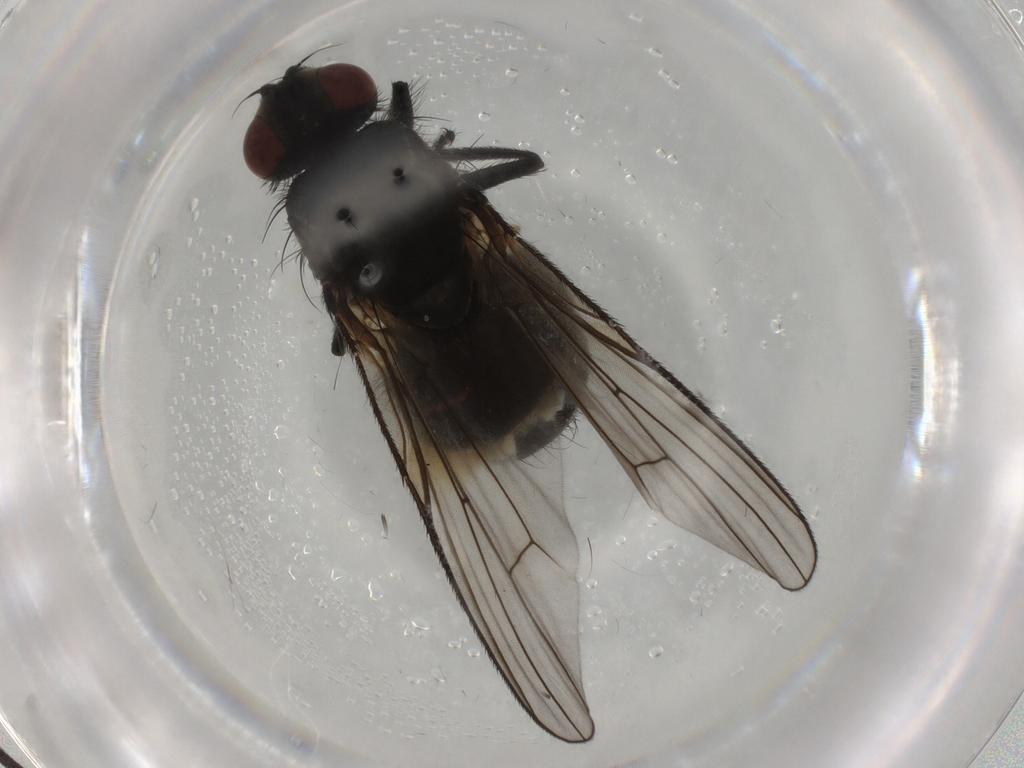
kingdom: Animalia
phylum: Arthropoda
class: Insecta
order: Diptera
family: Muscidae
